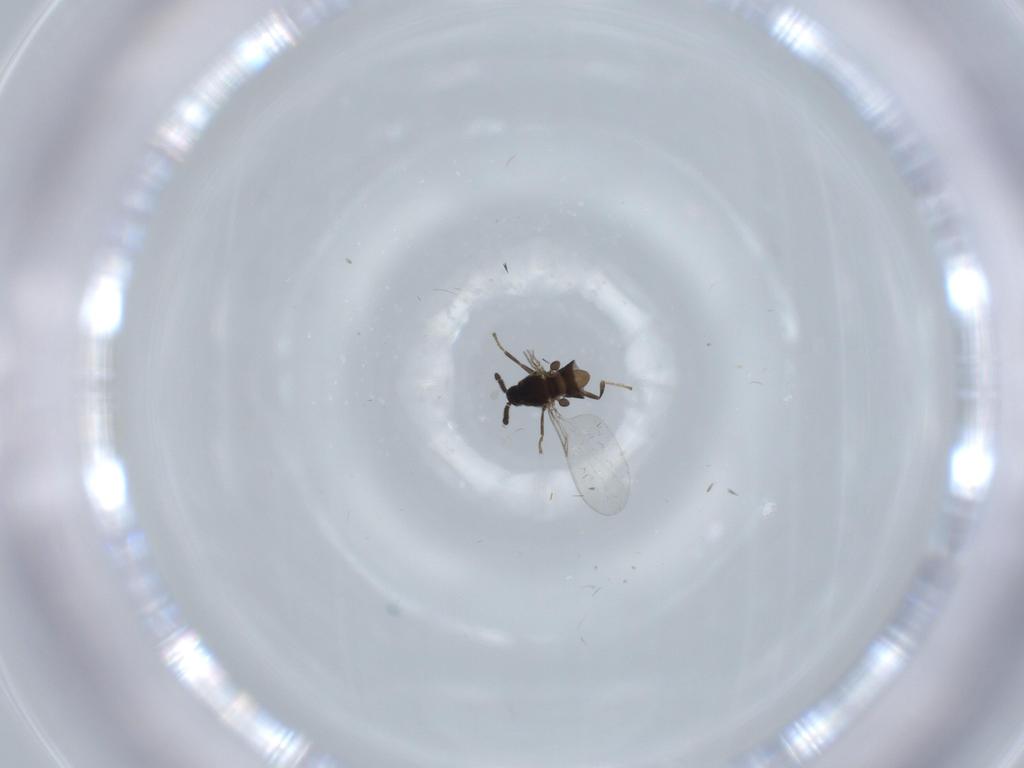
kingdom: Animalia
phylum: Arthropoda
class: Insecta
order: Diptera
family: Scatopsidae
